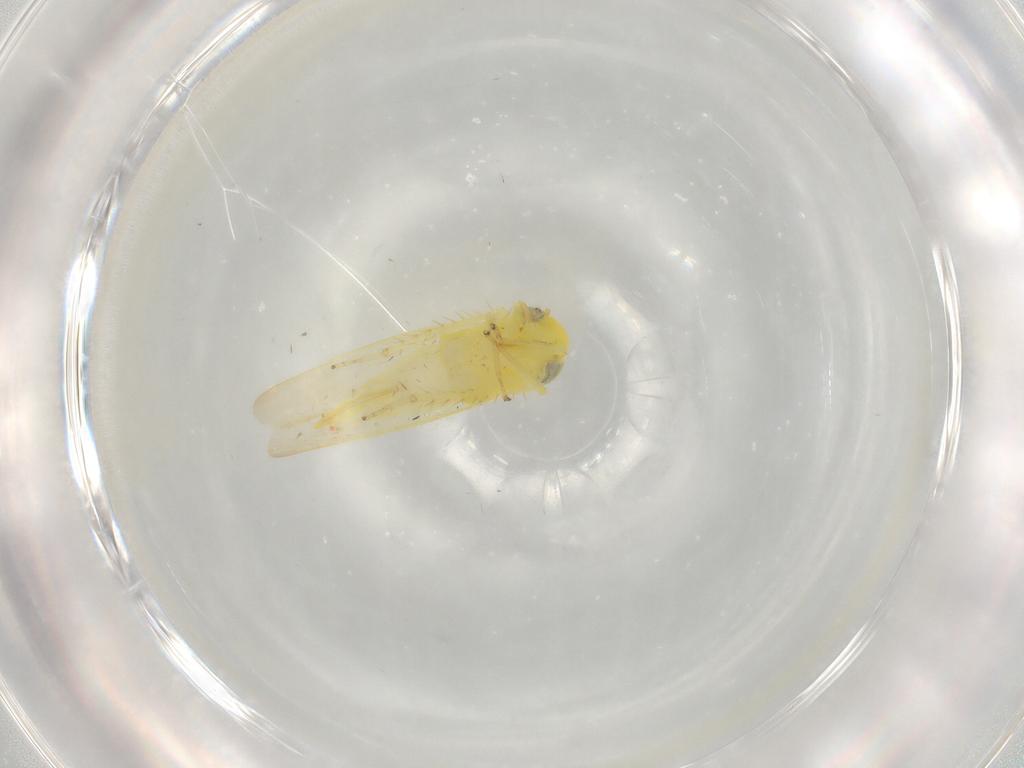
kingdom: Animalia
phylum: Arthropoda
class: Insecta
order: Hemiptera
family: Cicadellidae
